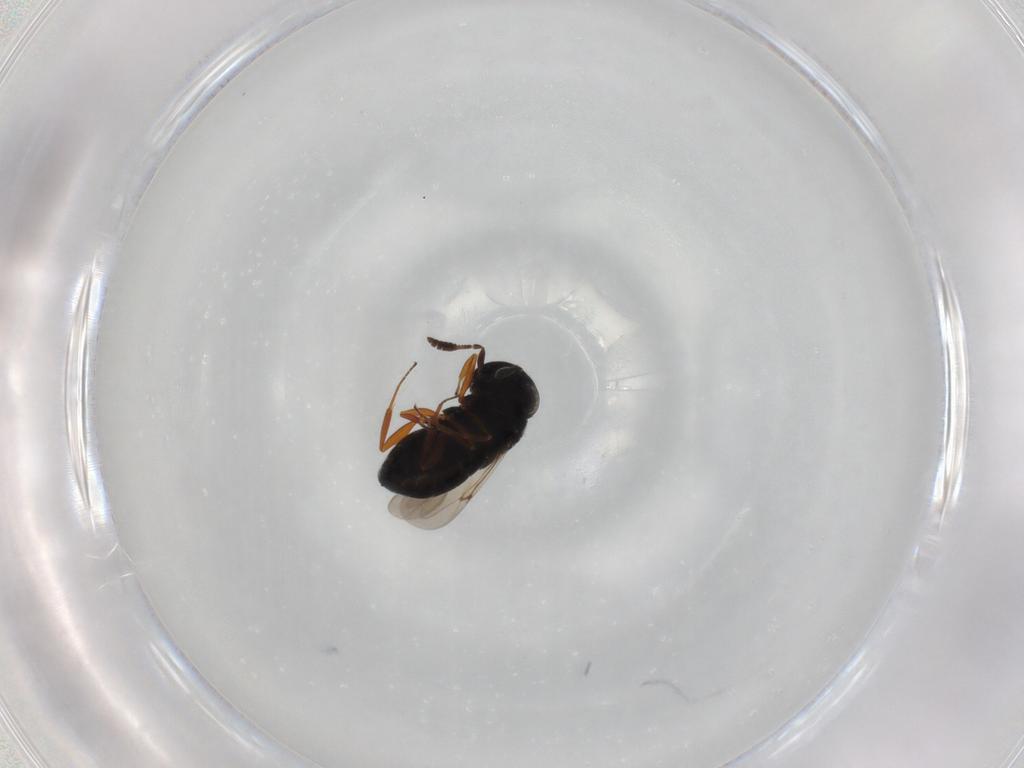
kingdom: Animalia
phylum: Arthropoda
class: Insecta
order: Hymenoptera
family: Scelionidae
